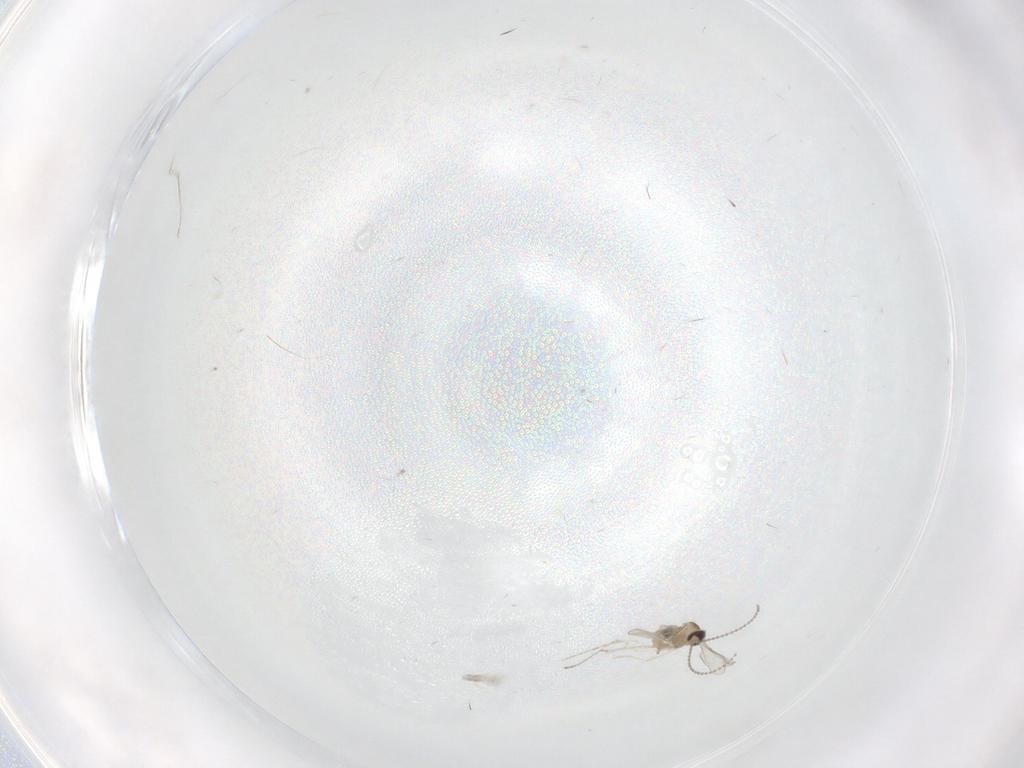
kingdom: Animalia
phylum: Arthropoda
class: Insecta
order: Diptera
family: Cecidomyiidae
